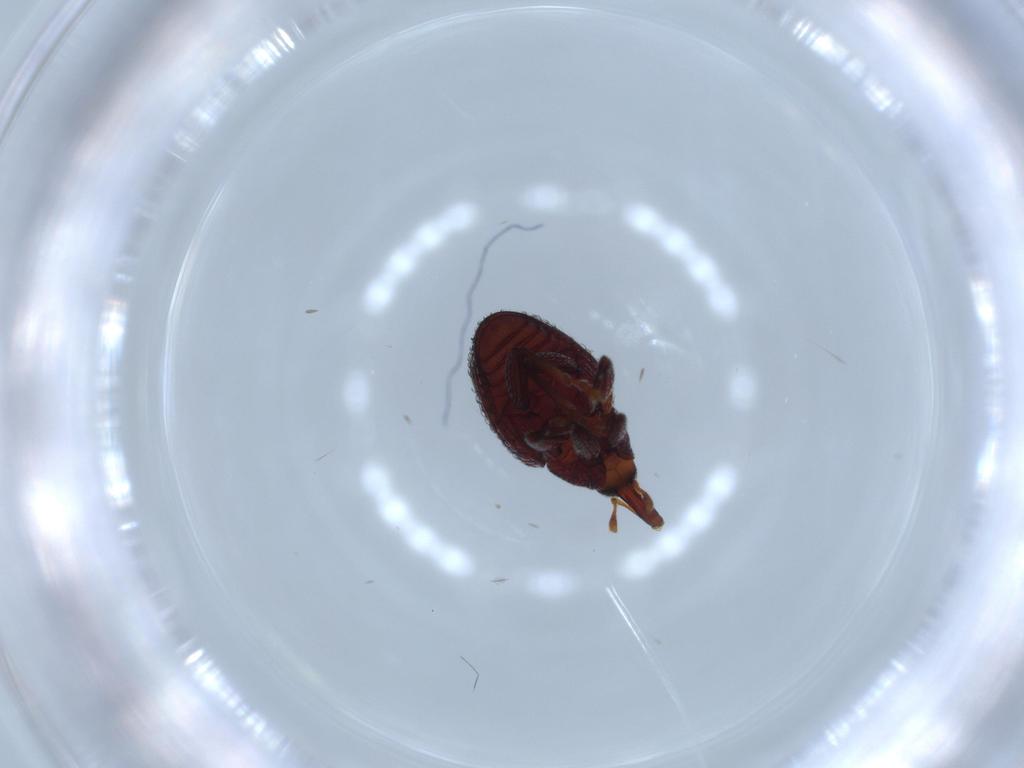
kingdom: Animalia
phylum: Arthropoda
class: Insecta
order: Coleoptera
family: Curculionidae
